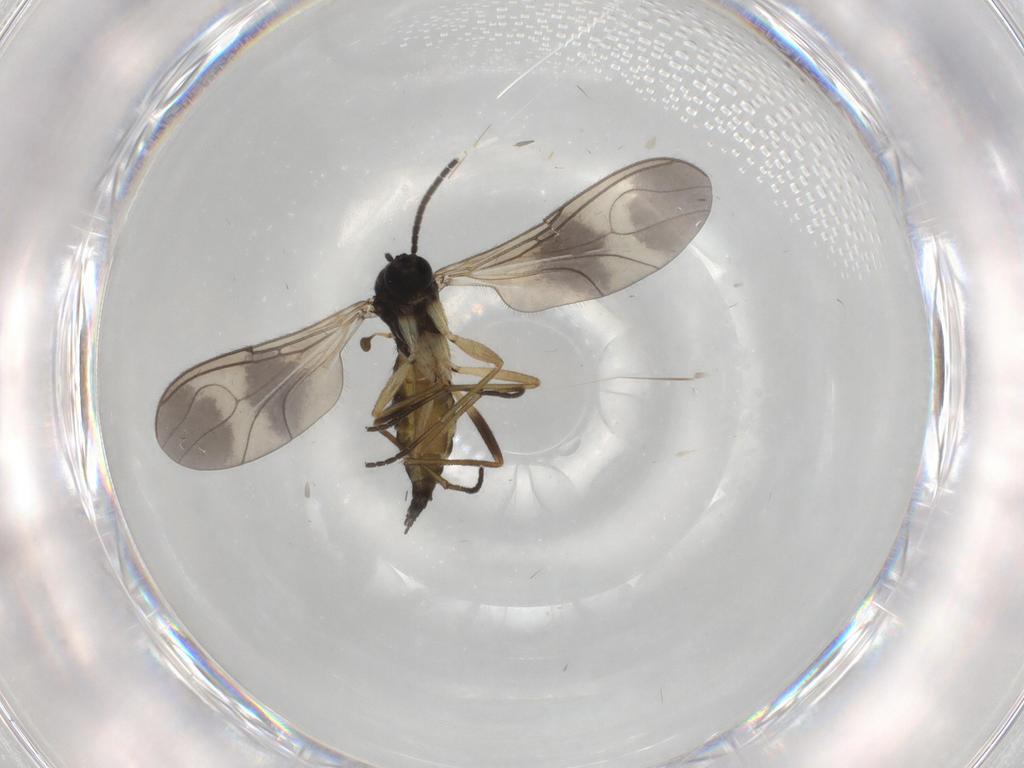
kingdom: Animalia
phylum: Arthropoda
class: Insecta
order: Diptera
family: Sciaridae
